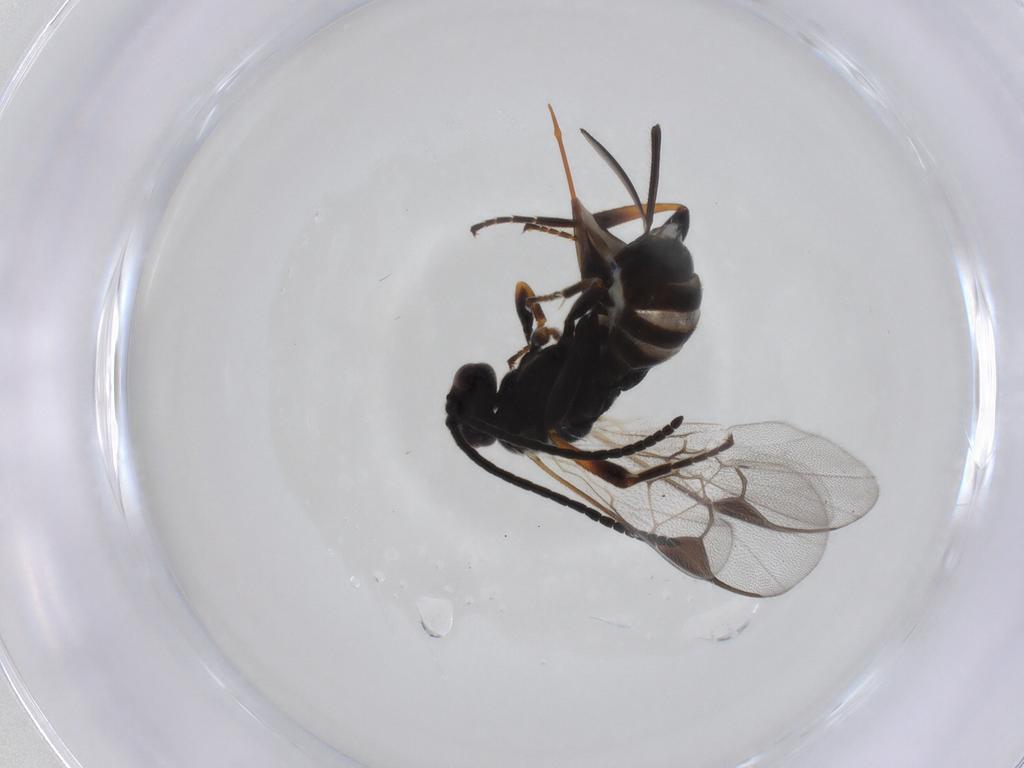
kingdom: Animalia
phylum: Arthropoda
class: Insecta
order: Hymenoptera
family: Braconidae
